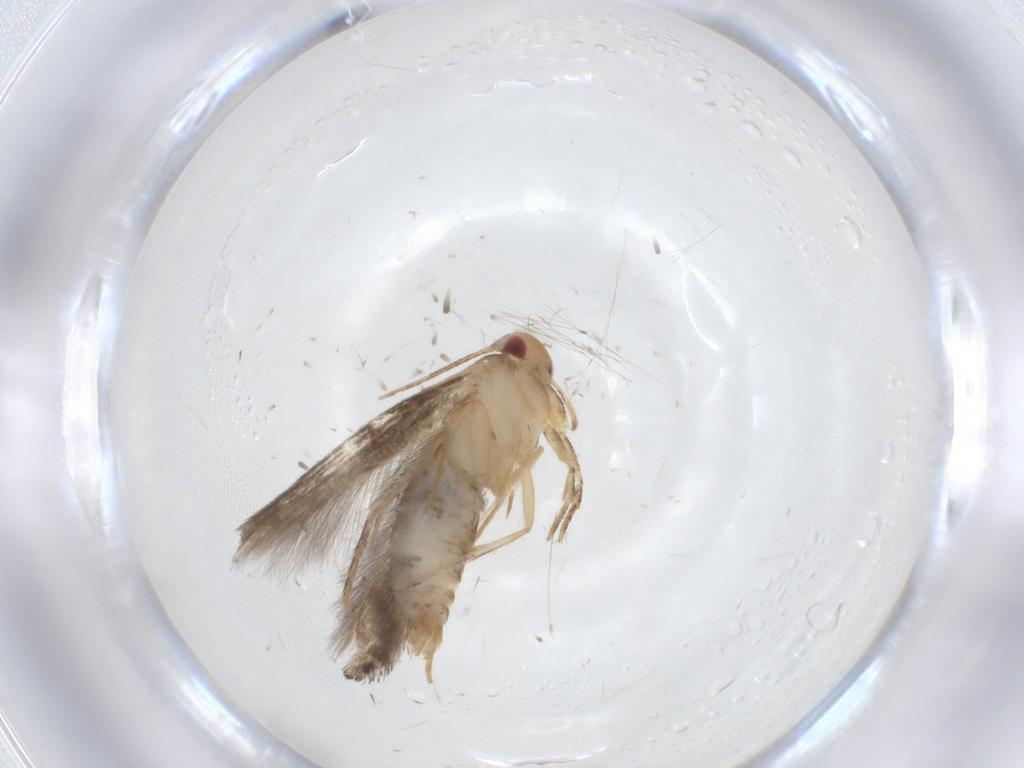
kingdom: Animalia
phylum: Arthropoda
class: Insecta
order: Lepidoptera
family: Momphidae
